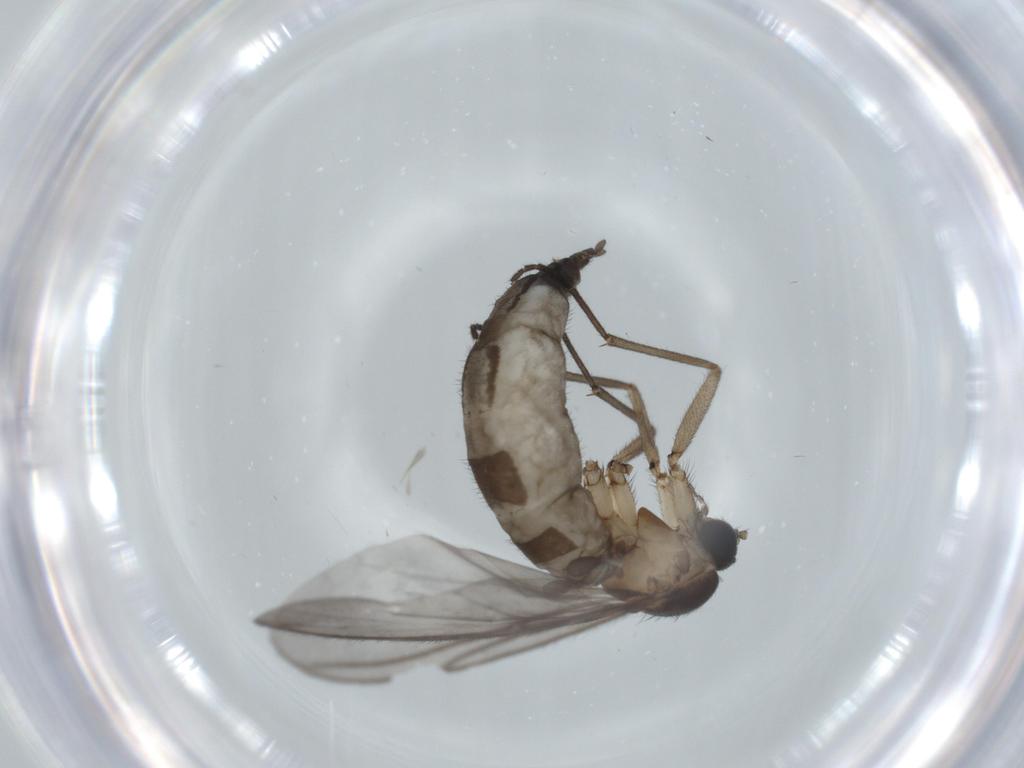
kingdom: Animalia
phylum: Arthropoda
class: Insecta
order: Diptera
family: Sciaridae
